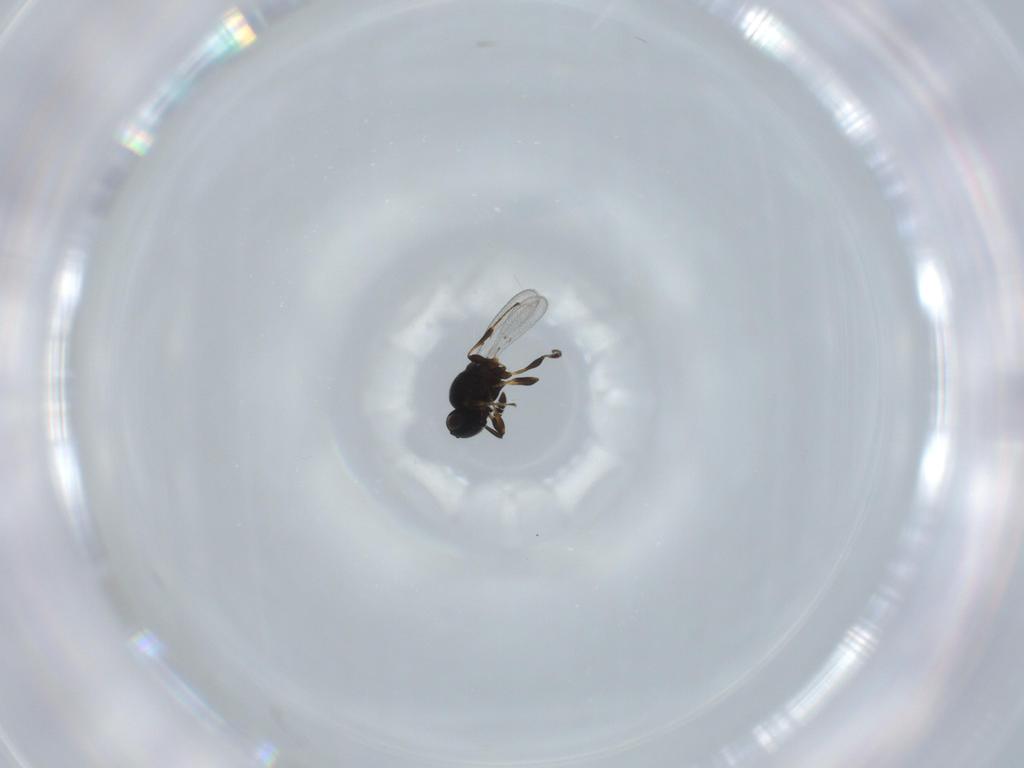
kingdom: Animalia
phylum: Arthropoda
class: Insecta
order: Hymenoptera
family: Platygastridae
